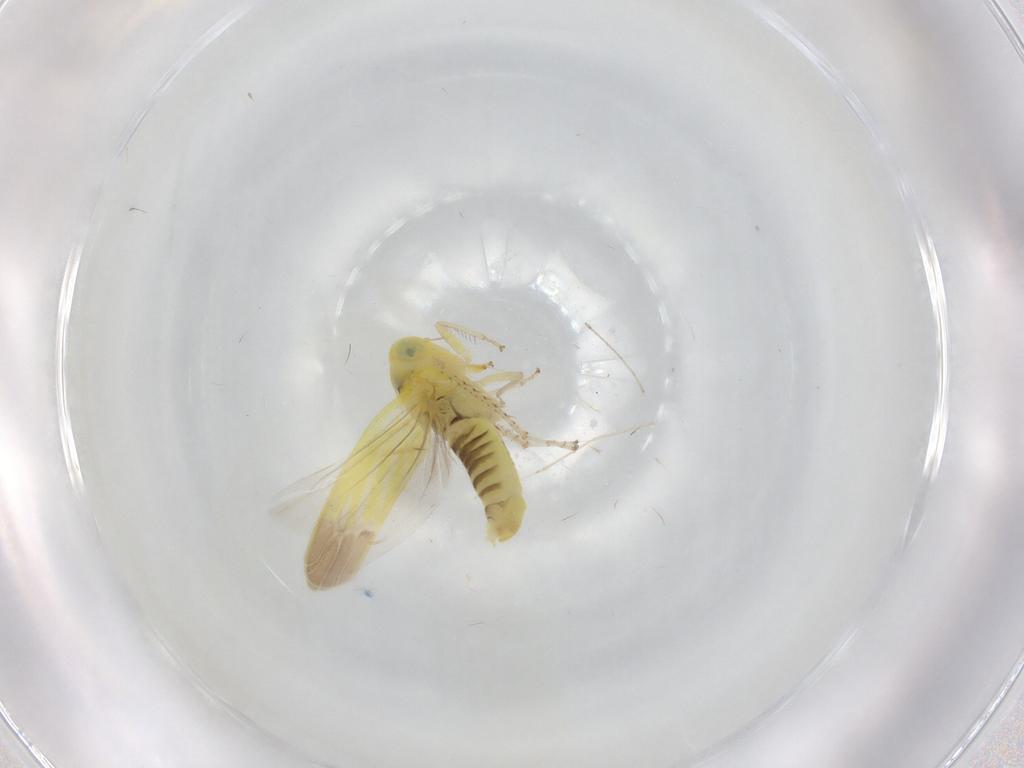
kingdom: Animalia
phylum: Arthropoda
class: Insecta
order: Hemiptera
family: Cicadellidae
